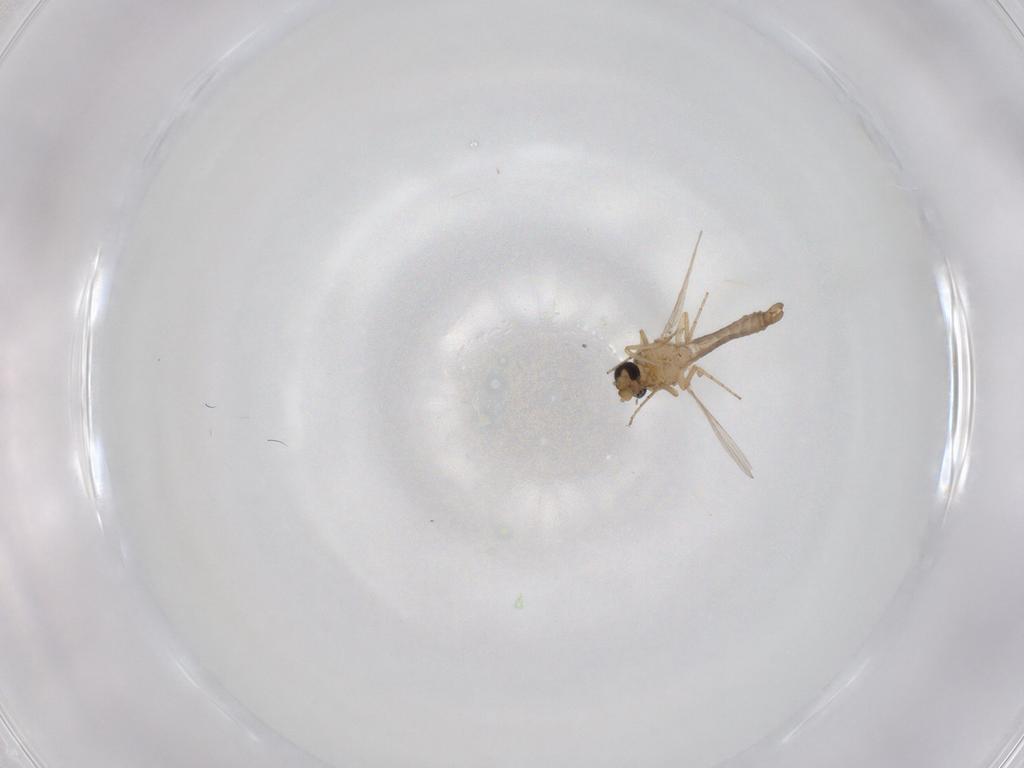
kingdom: Animalia
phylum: Arthropoda
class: Insecta
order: Diptera
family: Ceratopogonidae
